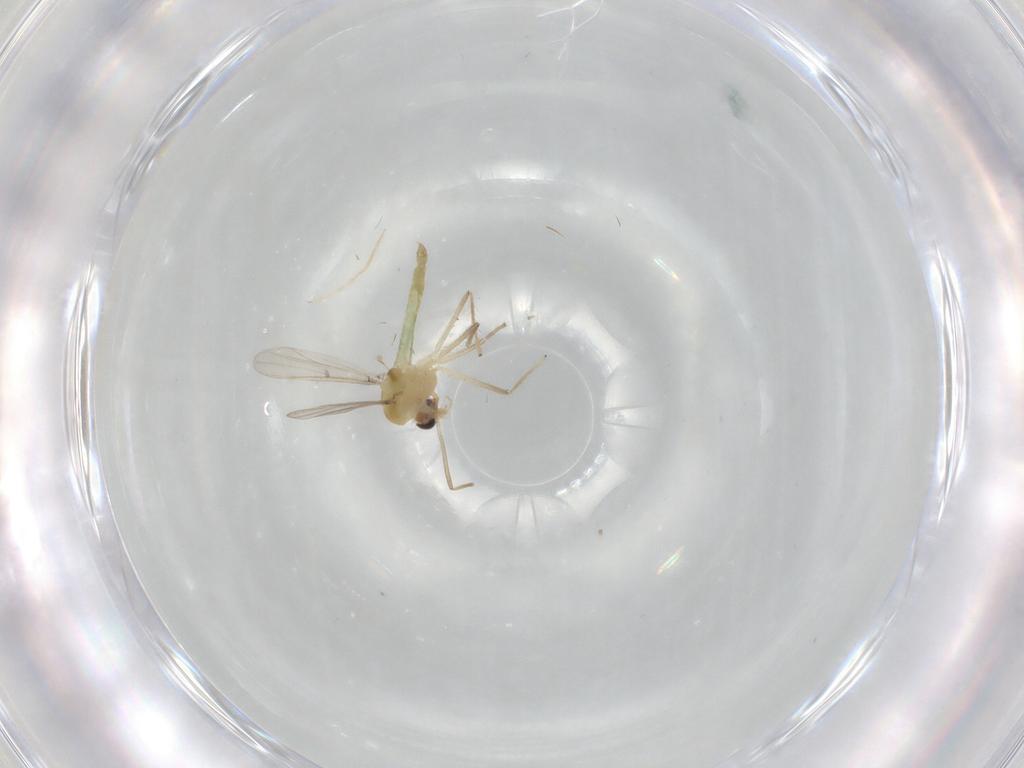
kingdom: Animalia
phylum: Arthropoda
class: Insecta
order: Diptera
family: Chironomidae
